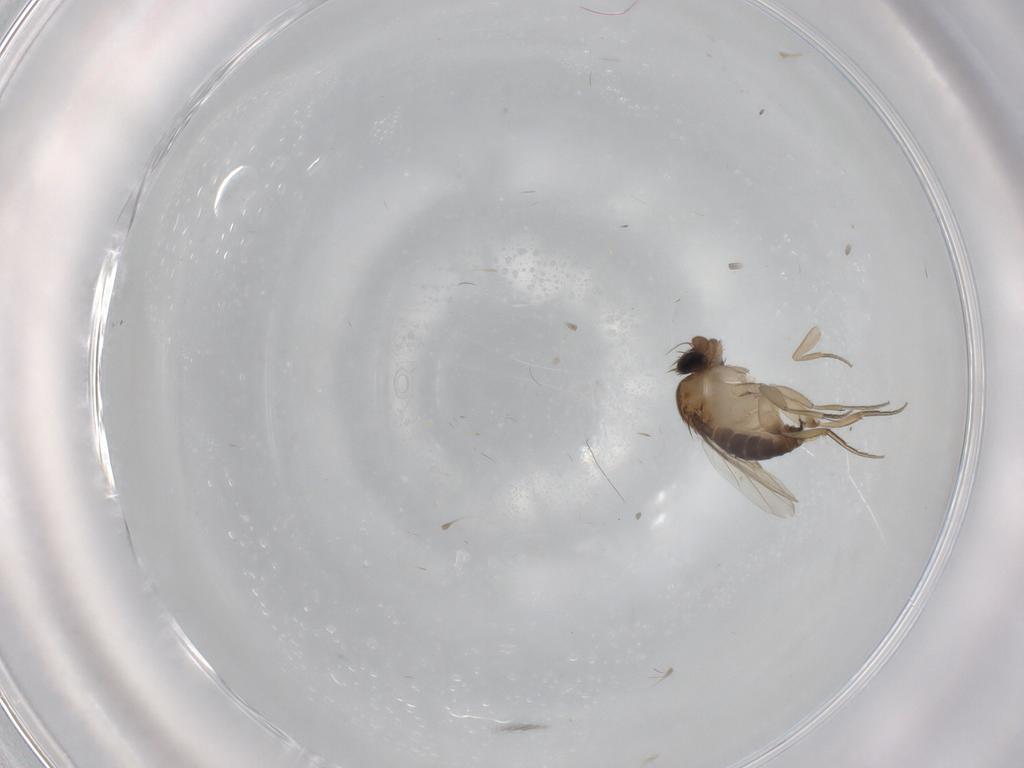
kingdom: Animalia
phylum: Arthropoda
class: Insecta
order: Diptera
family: Phoridae
